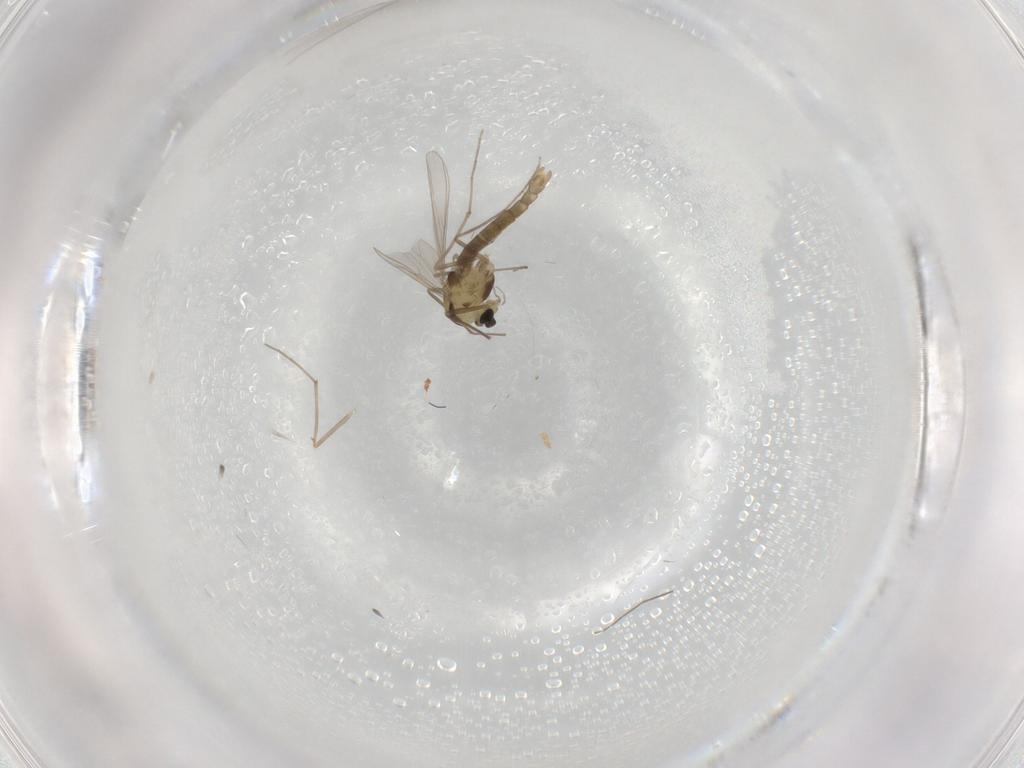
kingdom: Animalia
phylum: Arthropoda
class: Insecta
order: Diptera
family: Chironomidae
